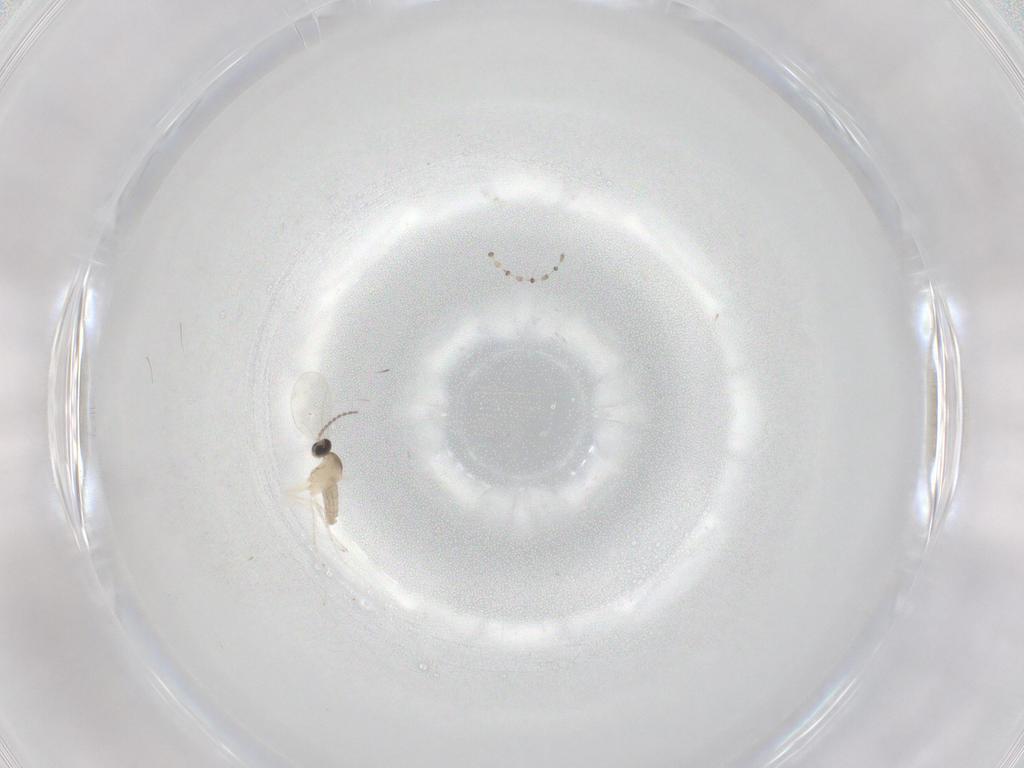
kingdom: Animalia
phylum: Arthropoda
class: Insecta
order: Diptera
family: Cecidomyiidae
